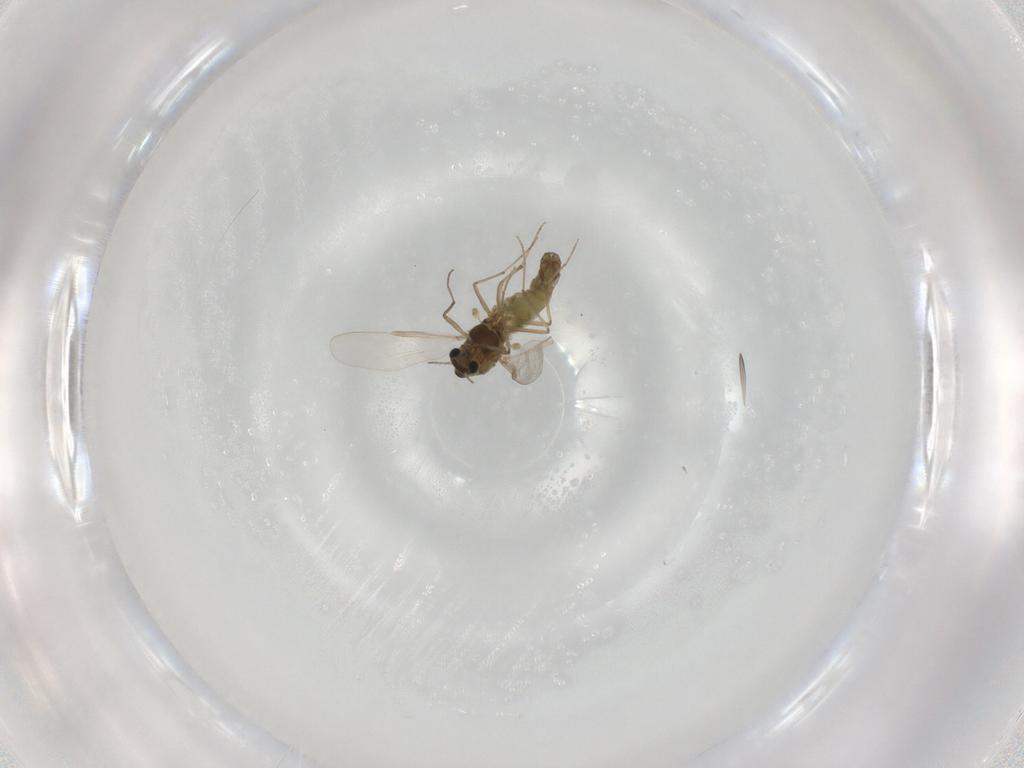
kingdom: Animalia
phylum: Arthropoda
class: Insecta
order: Diptera
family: Chironomidae
